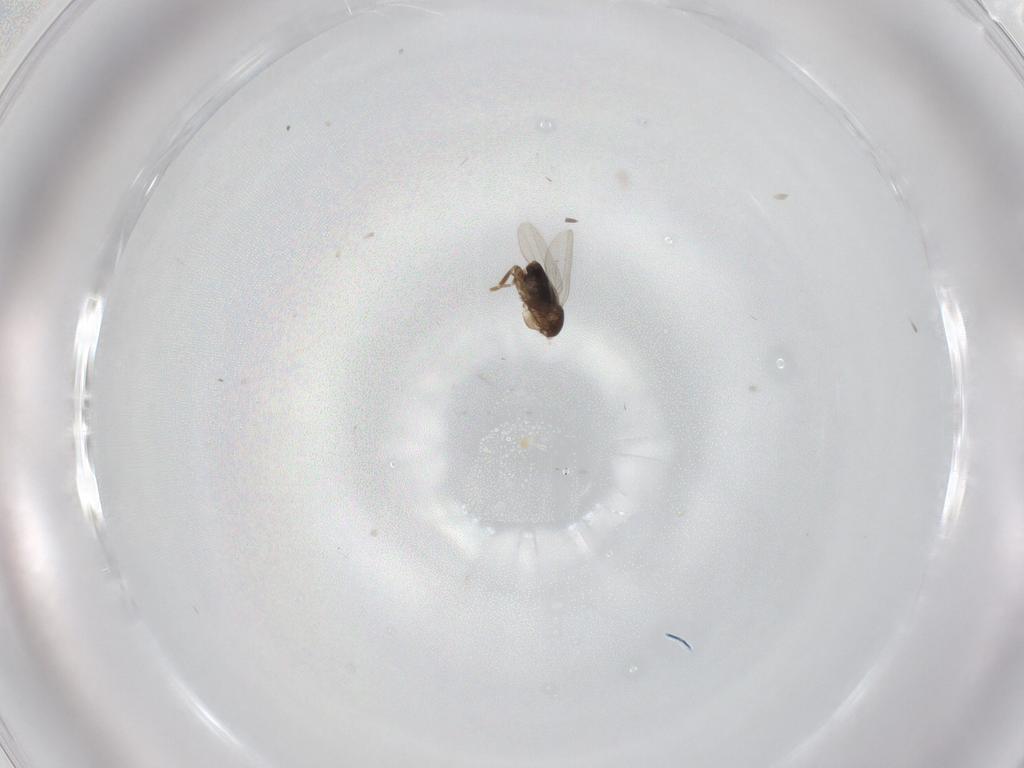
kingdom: Animalia
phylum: Arthropoda
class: Insecta
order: Diptera
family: Phoridae
